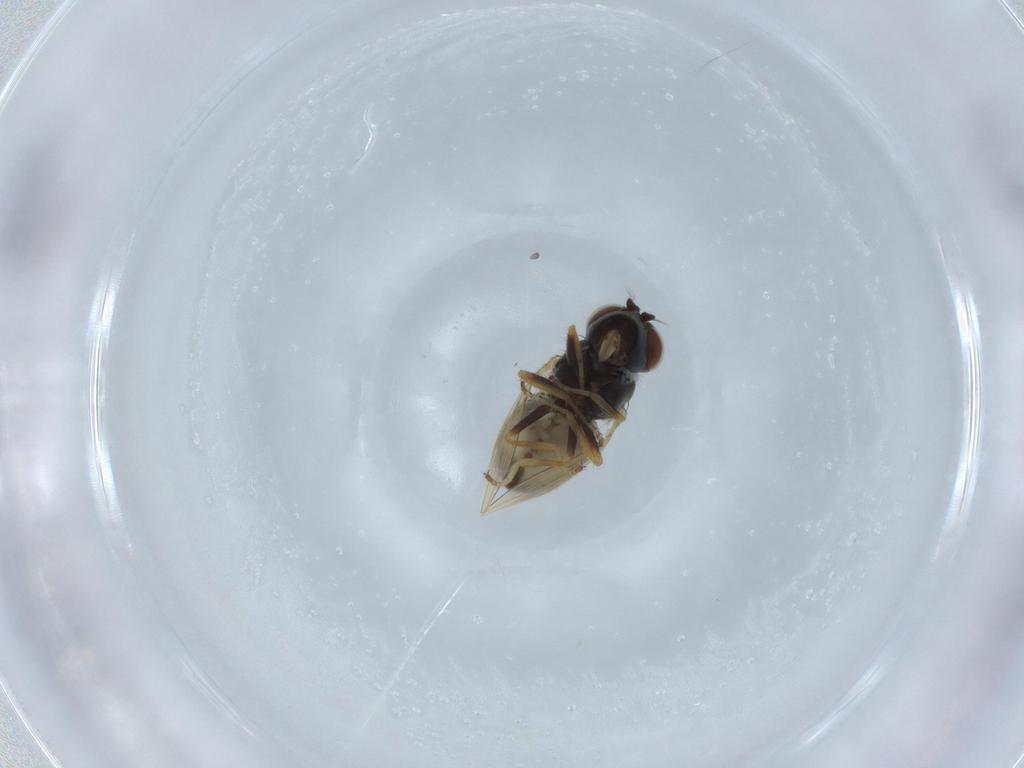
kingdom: Animalia
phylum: Arthropoda
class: Insecta
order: Diptera
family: Ephydridae
